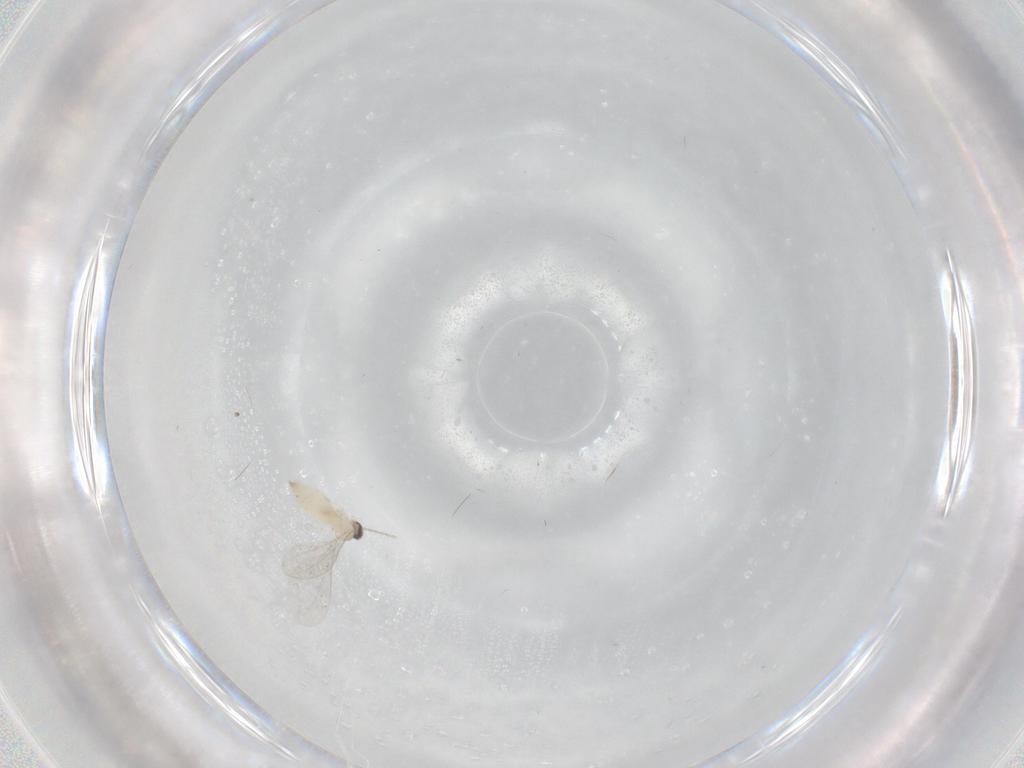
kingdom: Animalia
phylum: Arthropoda
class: Insecta
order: Diptera
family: Cecidomyiidae
